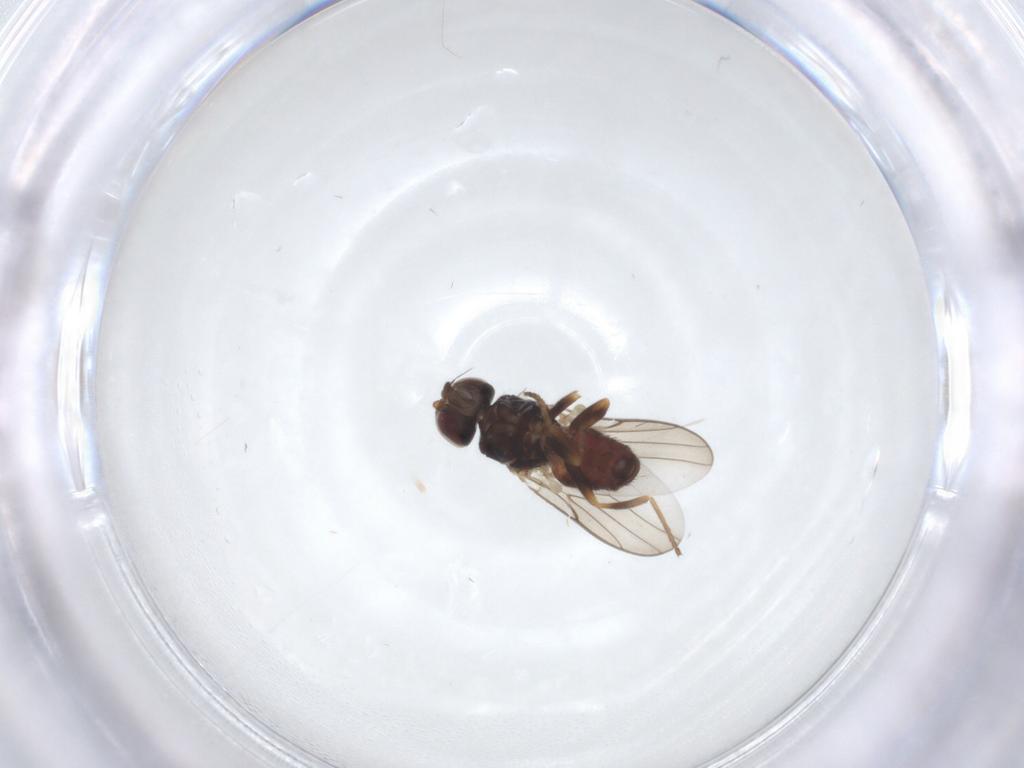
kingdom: Animalia
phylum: Arthropoda
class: Insecta
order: Diptera
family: Chloropidae
